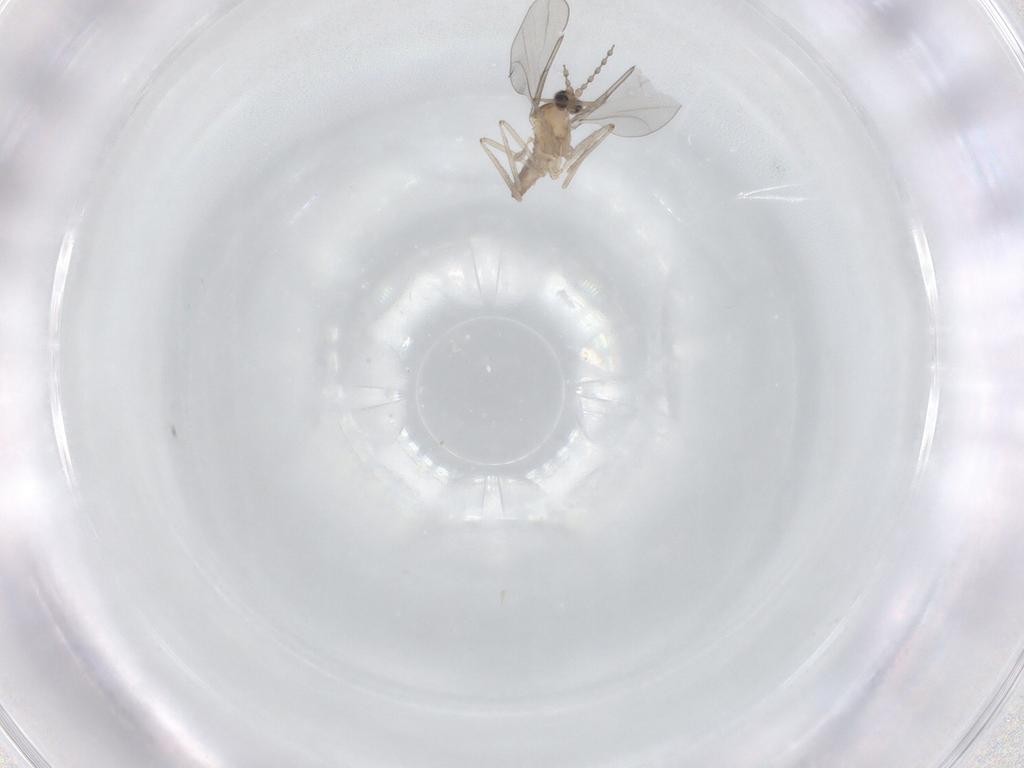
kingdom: Animalia
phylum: Arthropoda
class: Insecta
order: Diptera
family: Cecidomyiidae
